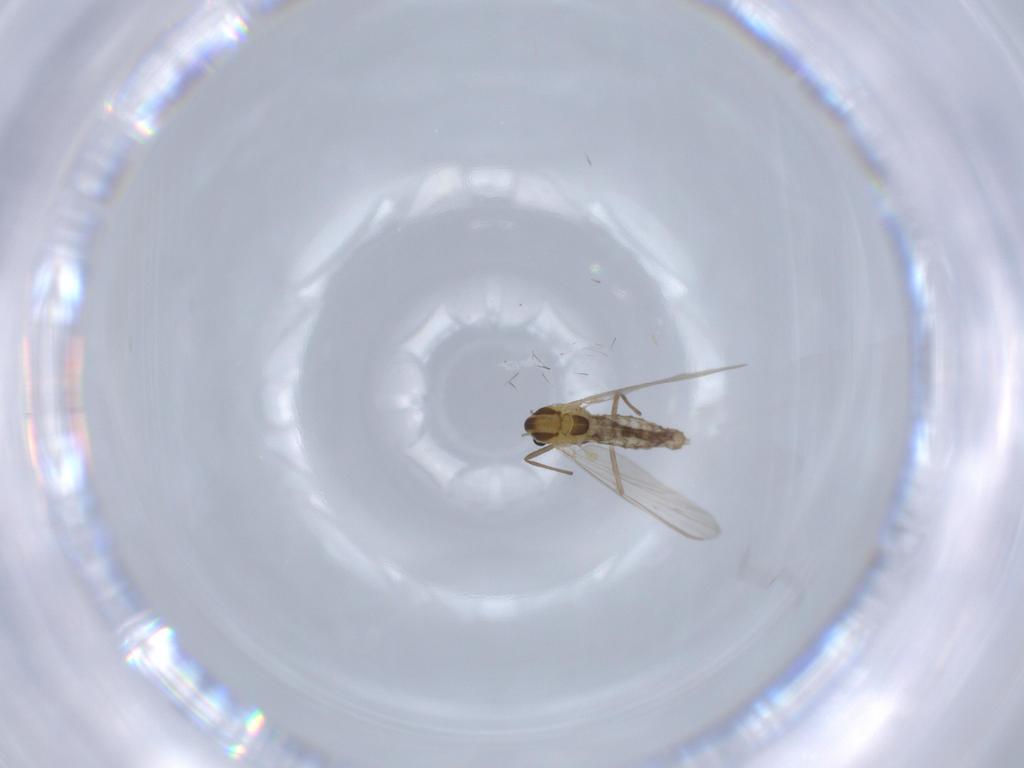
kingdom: Animalia
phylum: Arthropoda
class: Insecta
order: Diptera
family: Chironomidae
